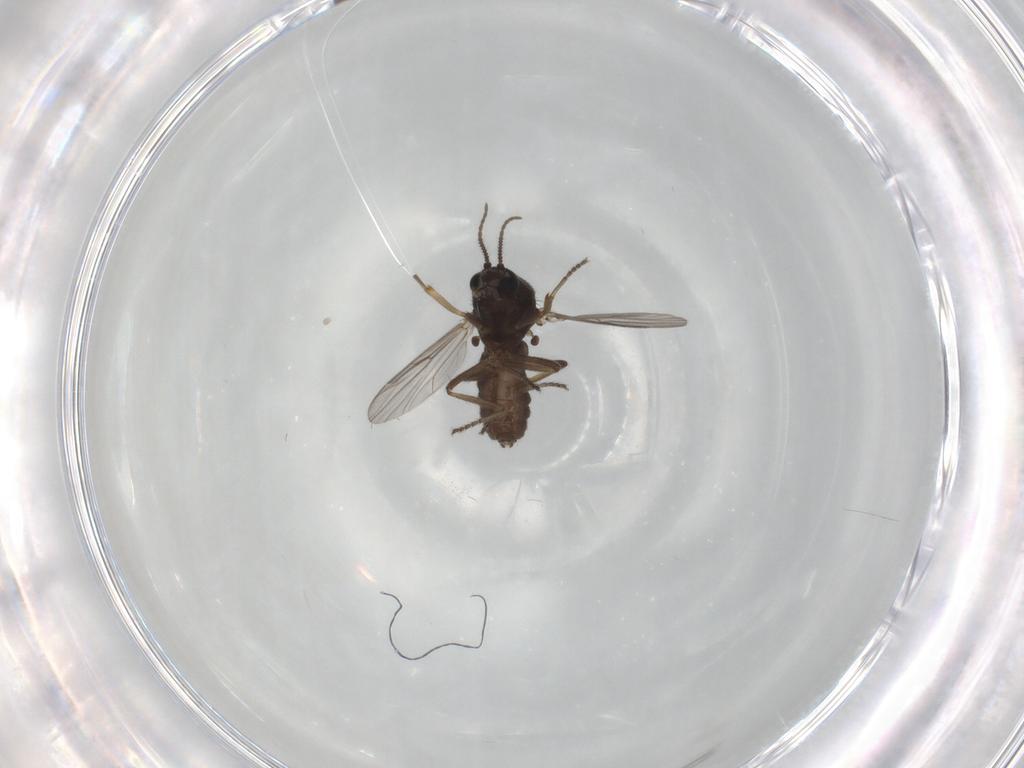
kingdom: Animalia
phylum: Arthropoda
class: Insecta
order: Diptera
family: Ceratopogonidae
